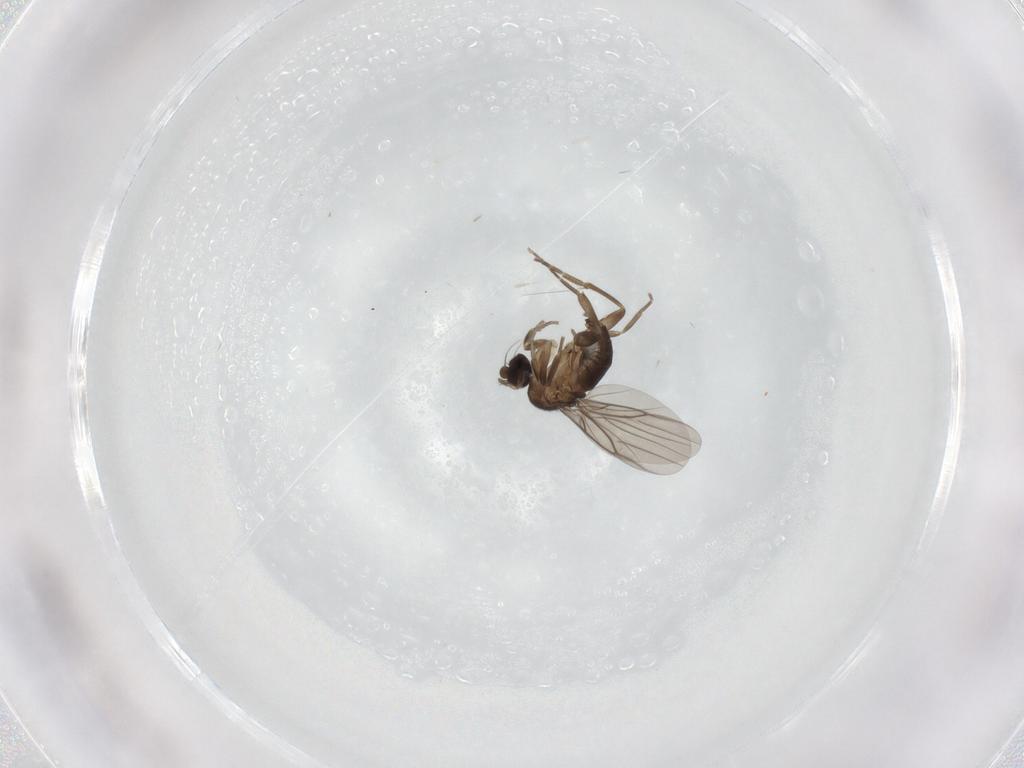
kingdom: Animalia
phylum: Arthropoda
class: Insecta
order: Diptera
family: Phoridae
